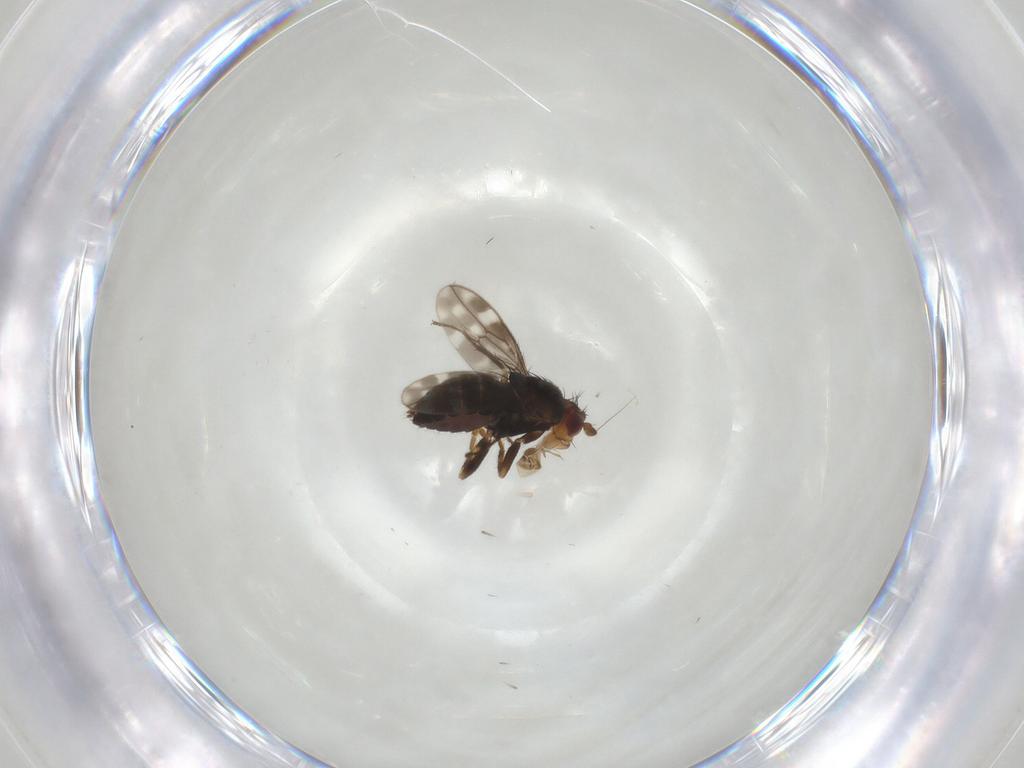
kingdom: Animalia
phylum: Arthropoda
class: Insecta
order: Diptera
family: Sphaeroceridae
